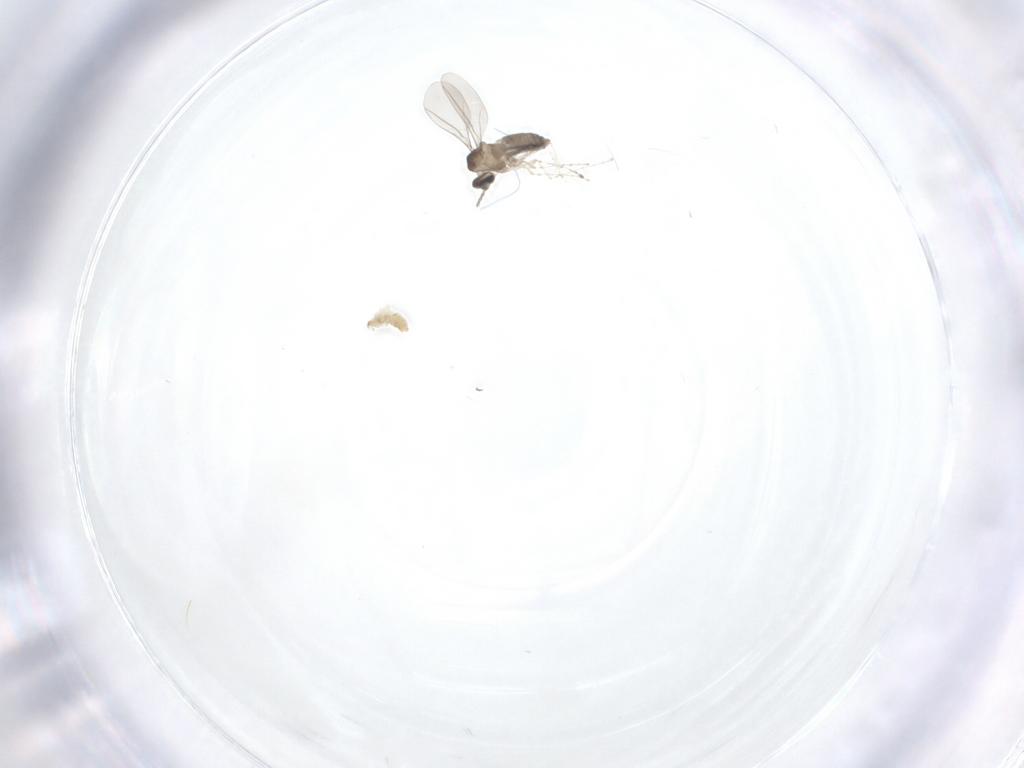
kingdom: Animalia
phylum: Arthropoda
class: Insecta
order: Diptera
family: Cecidomyiidae
